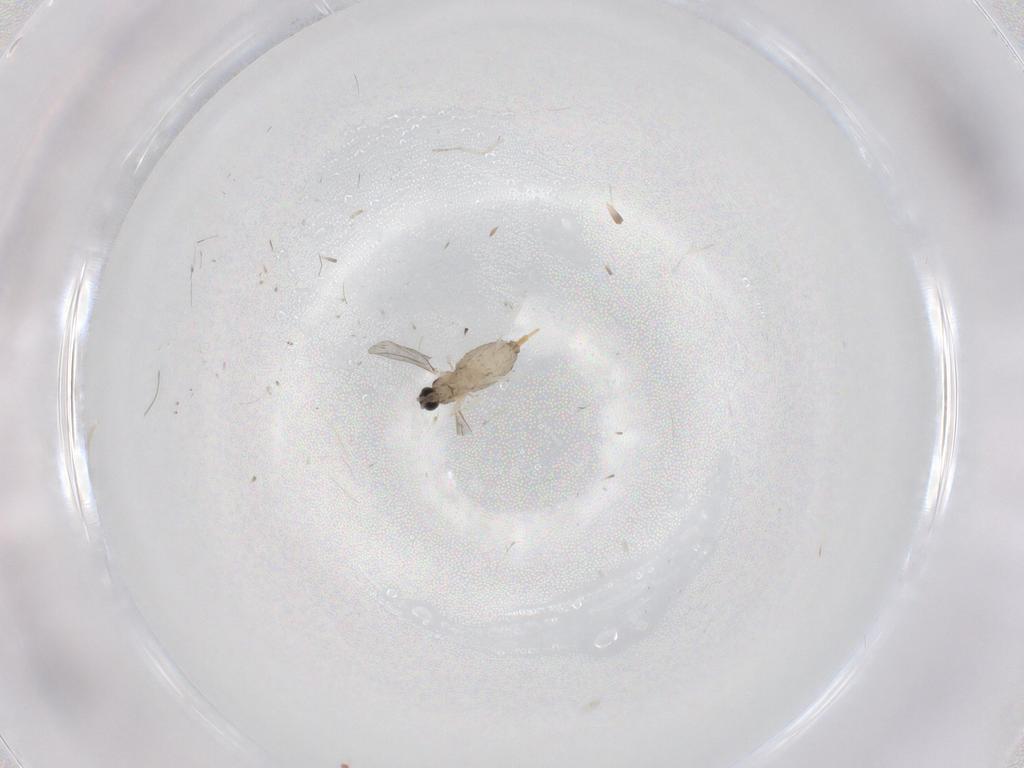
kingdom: Animalia
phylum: Arthropoda
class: Insecta
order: Diptera
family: Cecidomyiidae
